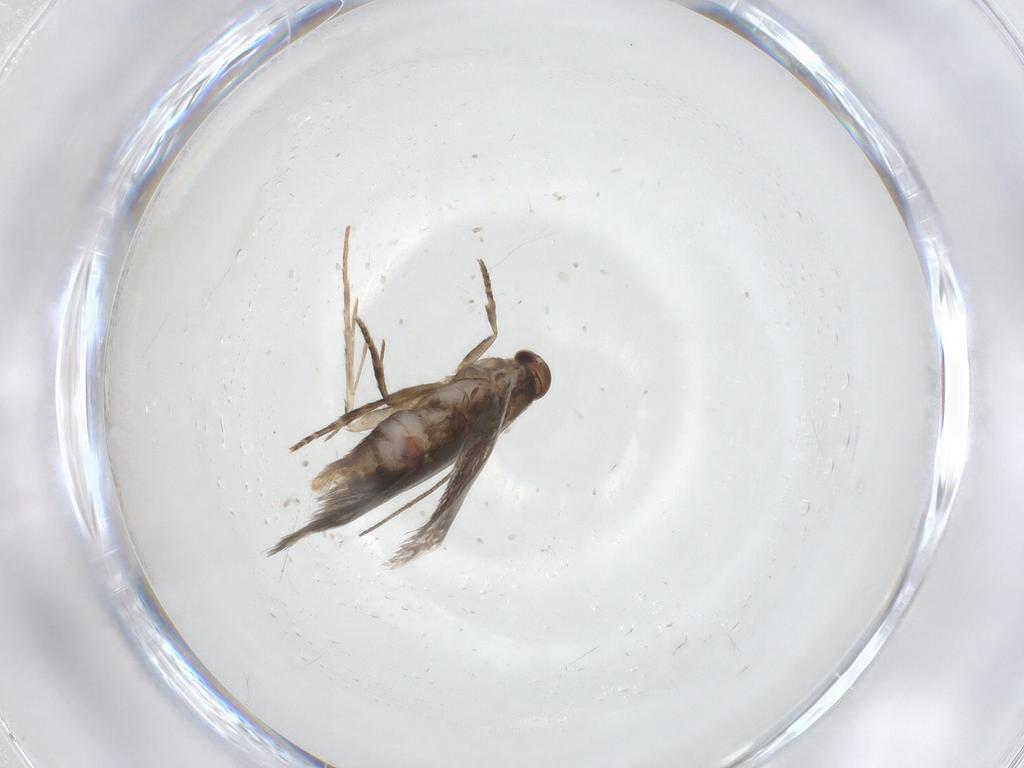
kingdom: Animalia
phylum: Arthropoda
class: Insecta
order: Lepidoptera
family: Elachistidae
